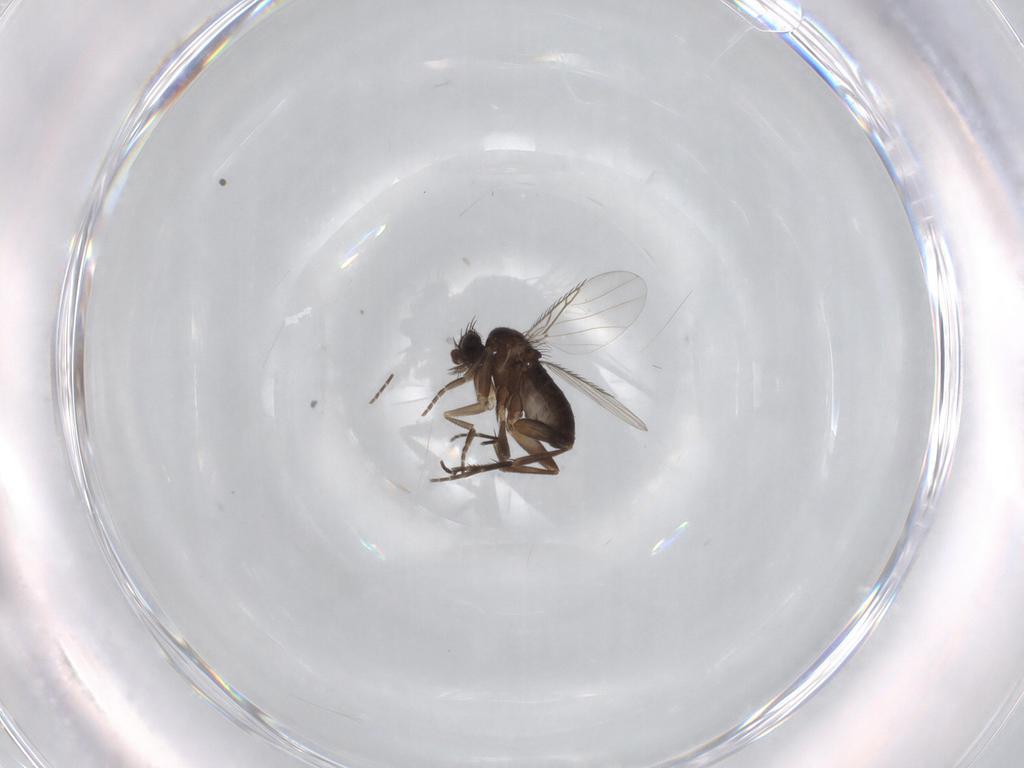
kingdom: Animalia
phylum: Arthropoda
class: Insecta
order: Diptera
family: Phoridae
